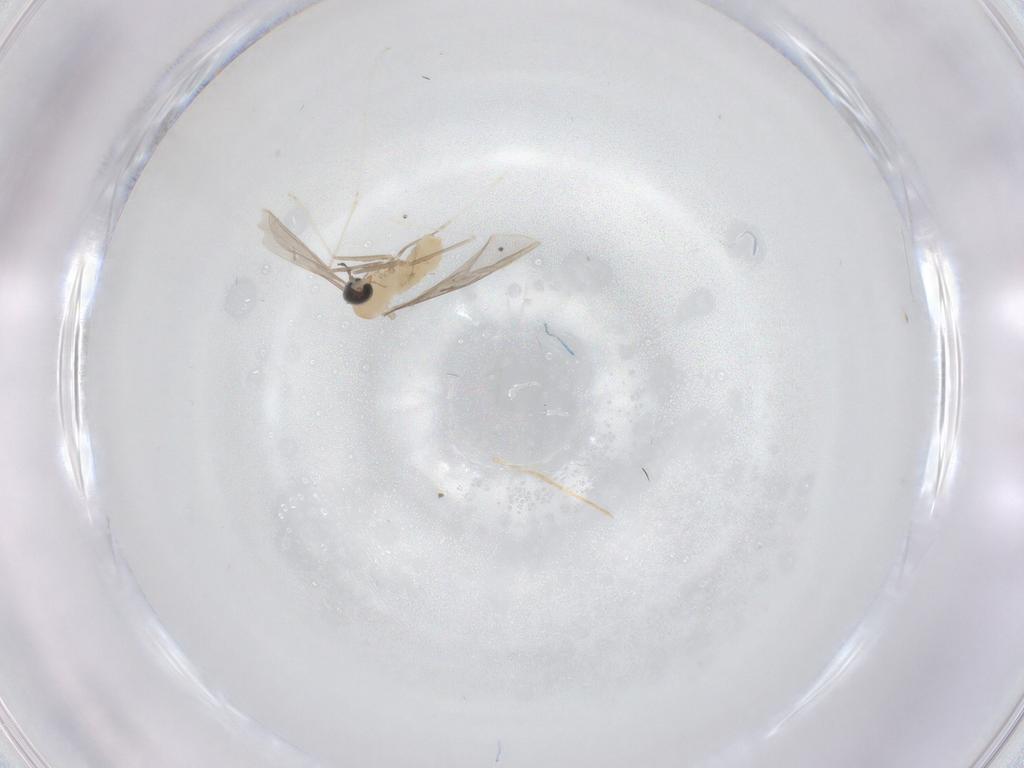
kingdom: Animalia
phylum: Arthropoda
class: Insecta
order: Diptera
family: Cecidomyiidae
